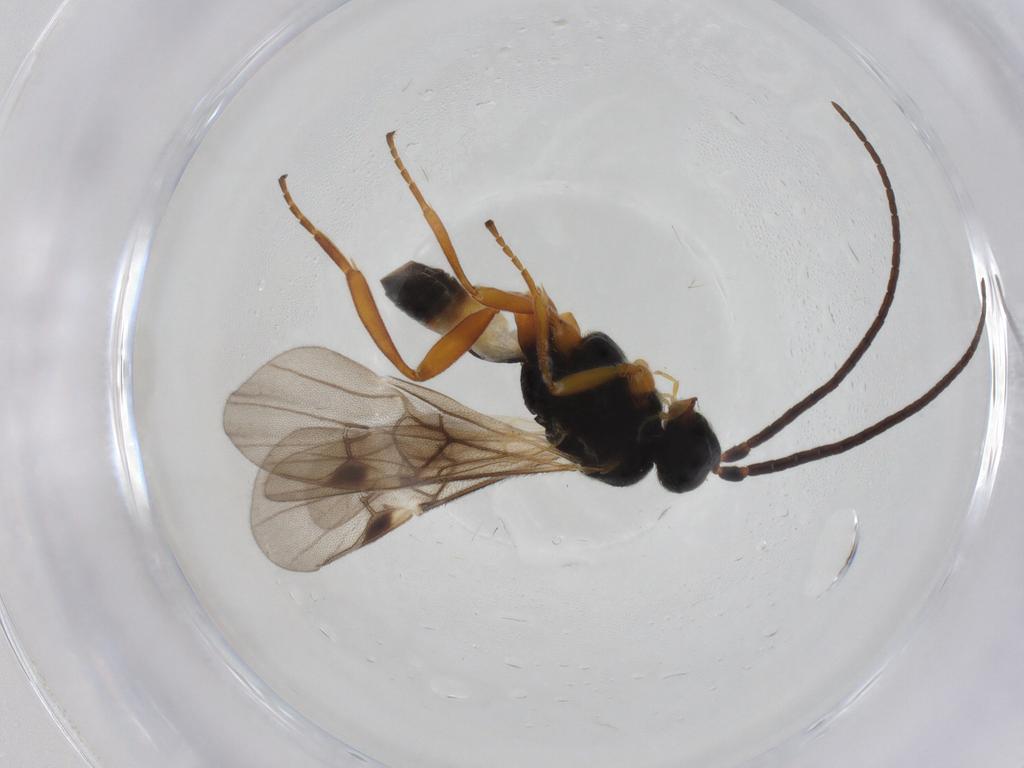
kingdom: Animalia
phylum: Arthropoda
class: Insecta
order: Hymenoptera
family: Braconidae
